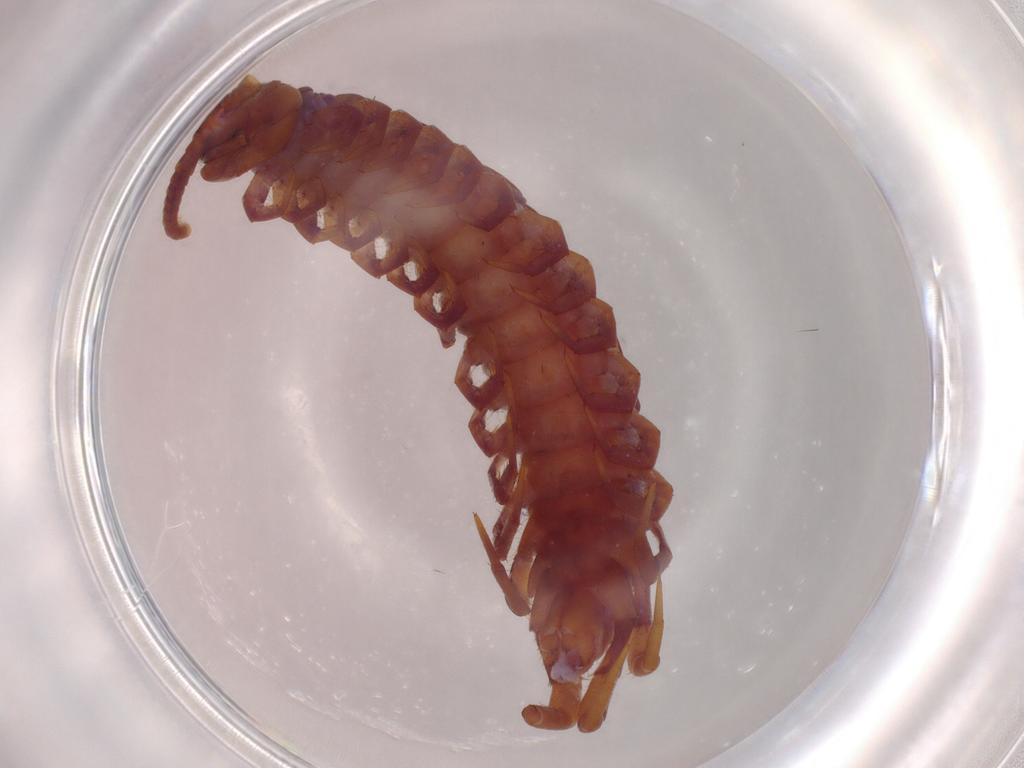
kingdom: Animalia
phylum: Arthropoda
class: Chilopoda
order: Lithobiomorpha
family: Lithobiidae
